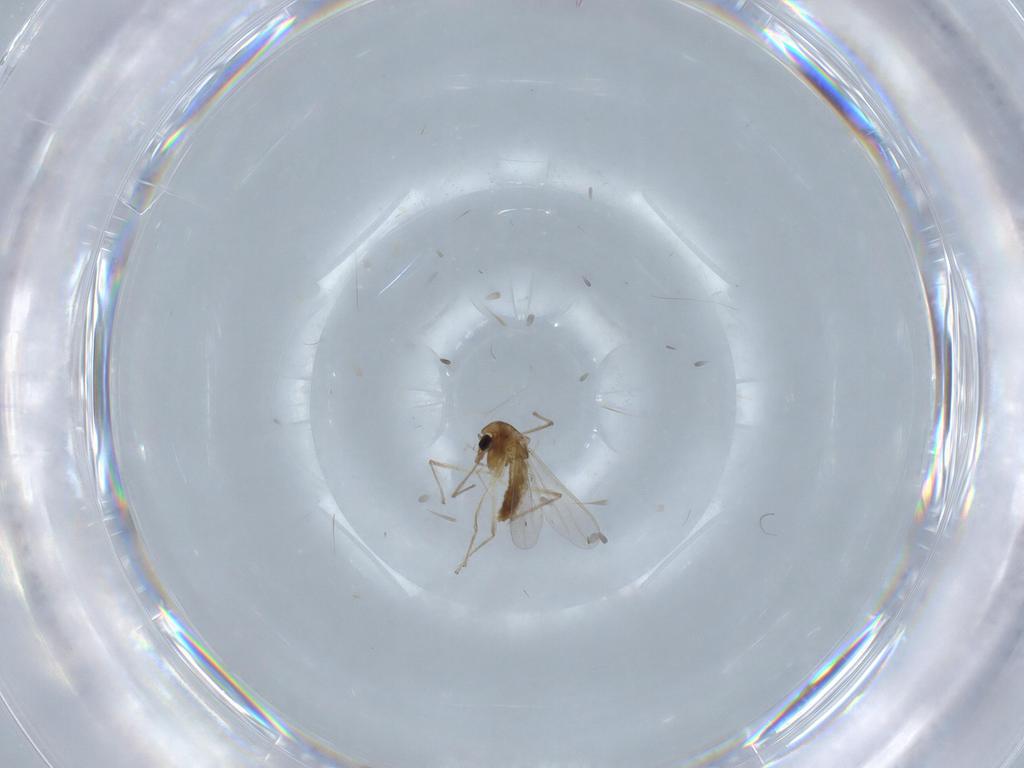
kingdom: Animalia
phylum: Arthropoda
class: Insecta
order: Diptera
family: Chironomidae
